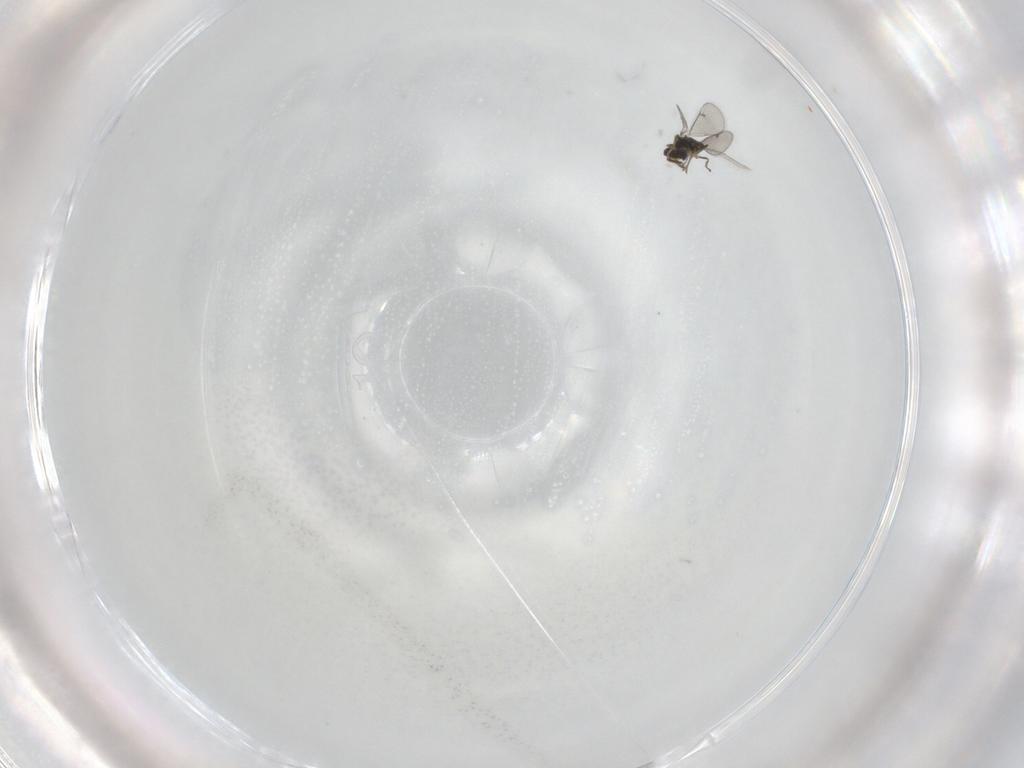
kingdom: Animalia
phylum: Arthropoda
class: Insecta
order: Hymenoptera
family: Eulophidae
